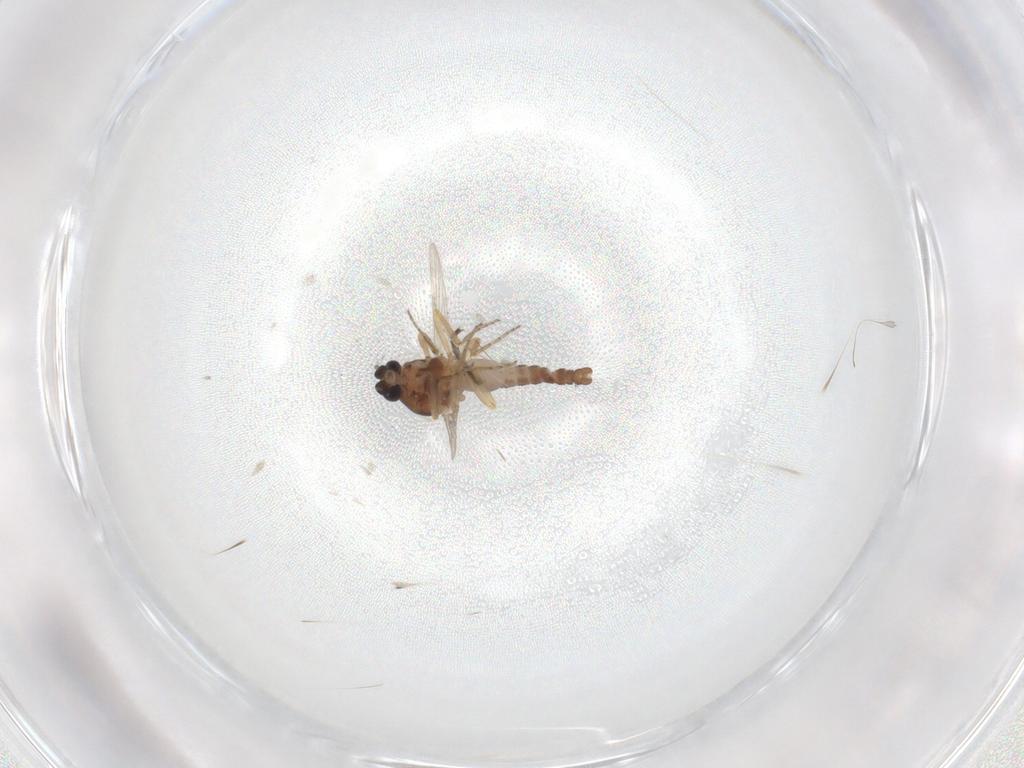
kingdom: Animalia
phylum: Arthropoda
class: Insecta
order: Diptera
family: Ceratopogonidae
